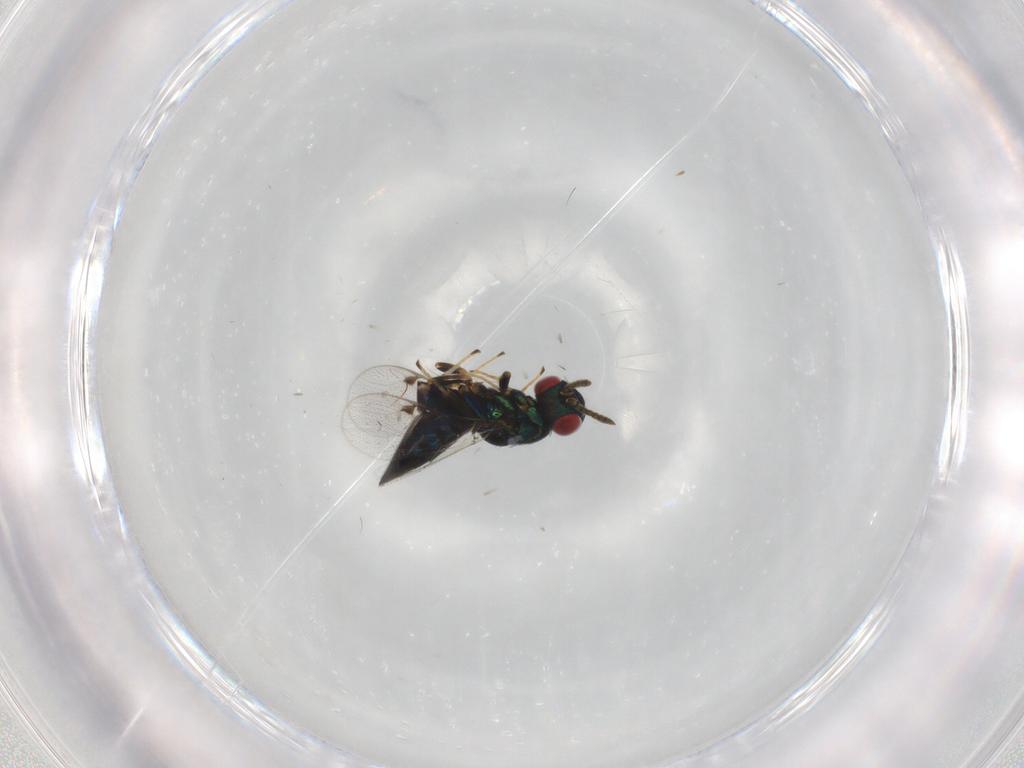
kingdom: Animalia
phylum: Arthropoda
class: Insecta
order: Hymenoptera
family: Pteromalidae
